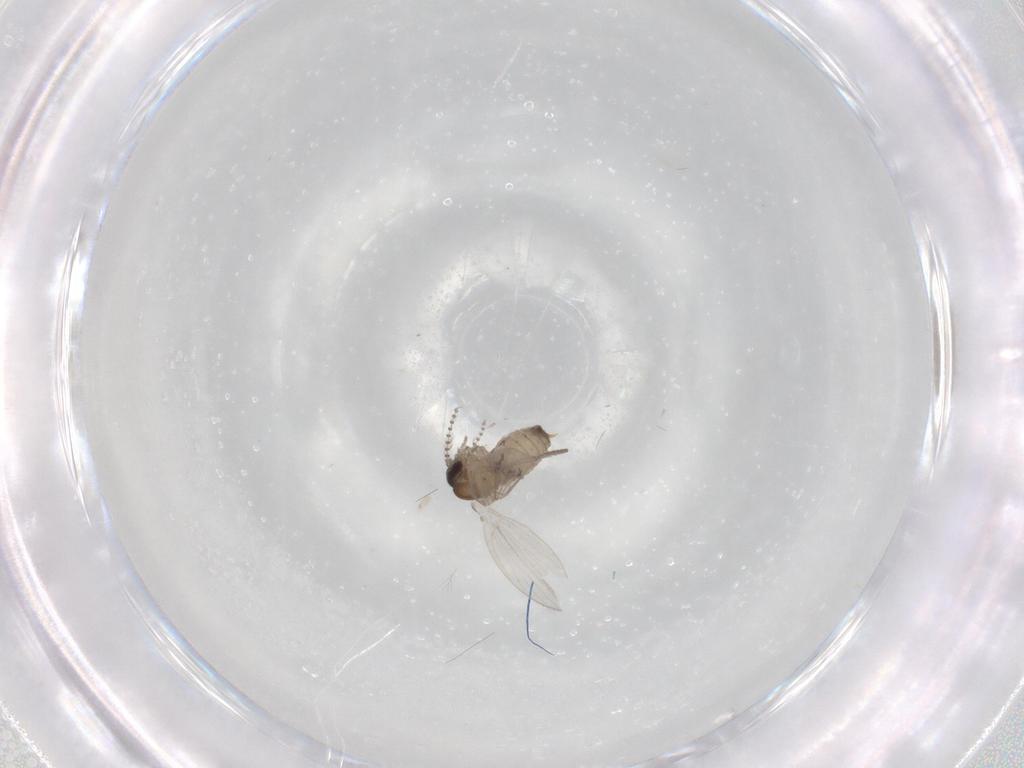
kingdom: Animalia
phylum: Arthropoda
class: Insecta
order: Diptera
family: Psychodidae
